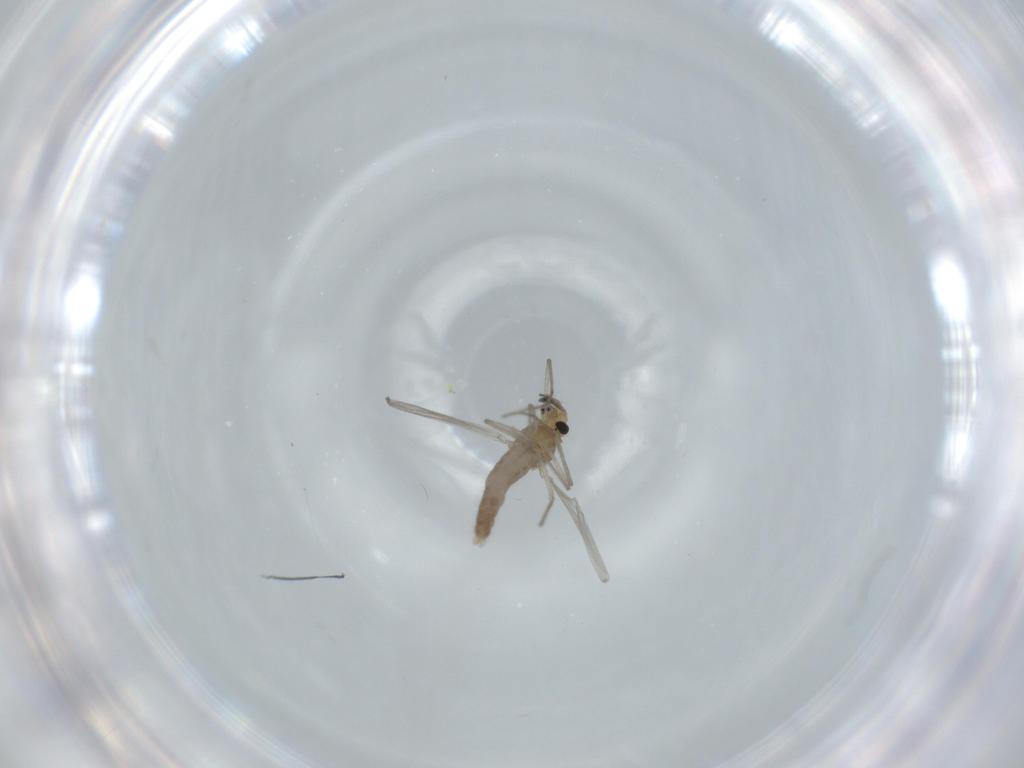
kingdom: Animalia
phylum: Arthropoda
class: Insecta
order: Diptera
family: Chironomidae
